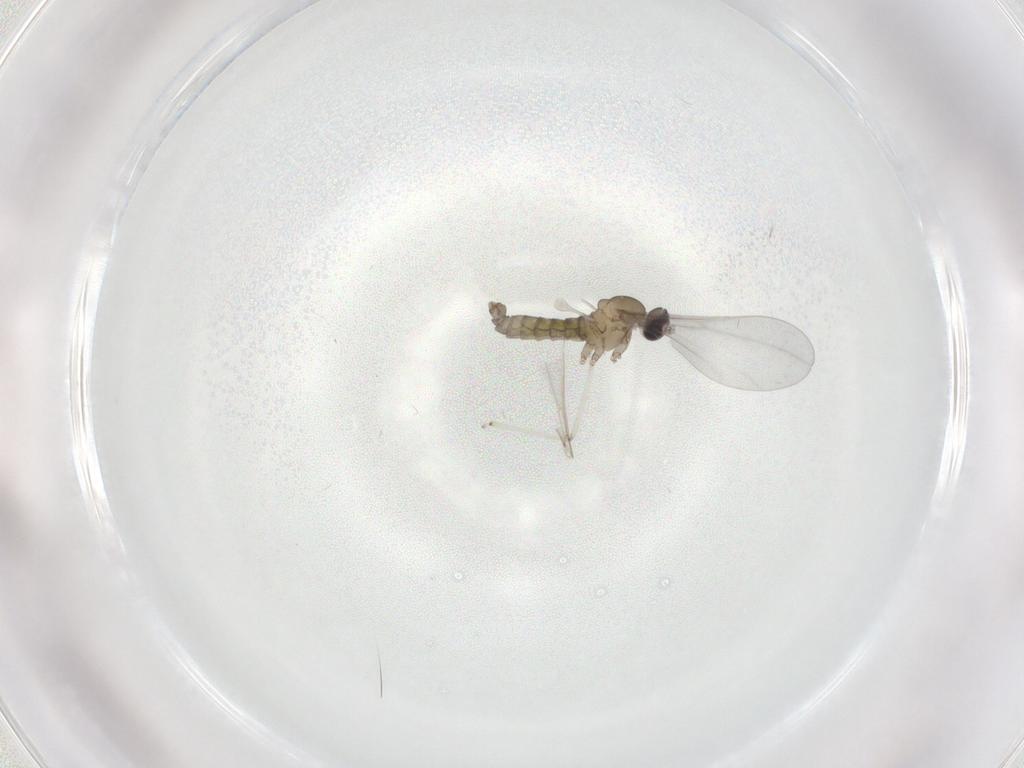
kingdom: Animalia
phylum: Arthropoda
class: Insecta
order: Diptera
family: Cecidomyiidae
